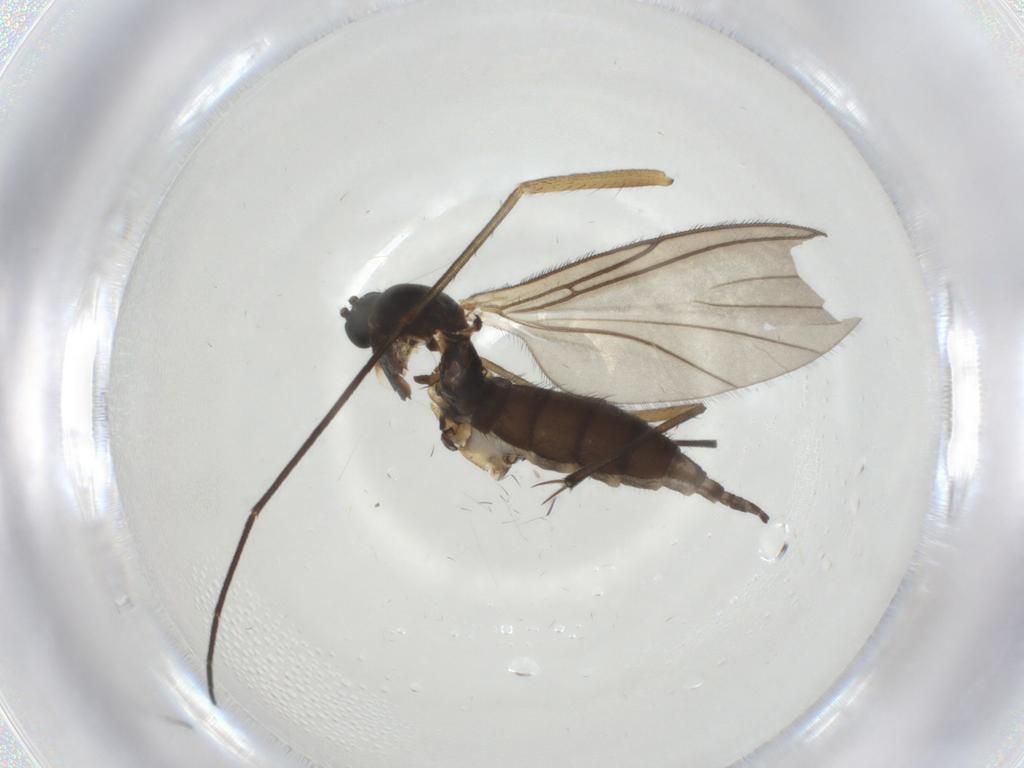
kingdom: Animalia
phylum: Arthropoda
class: Insecta
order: Diptera
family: Sciaridae
